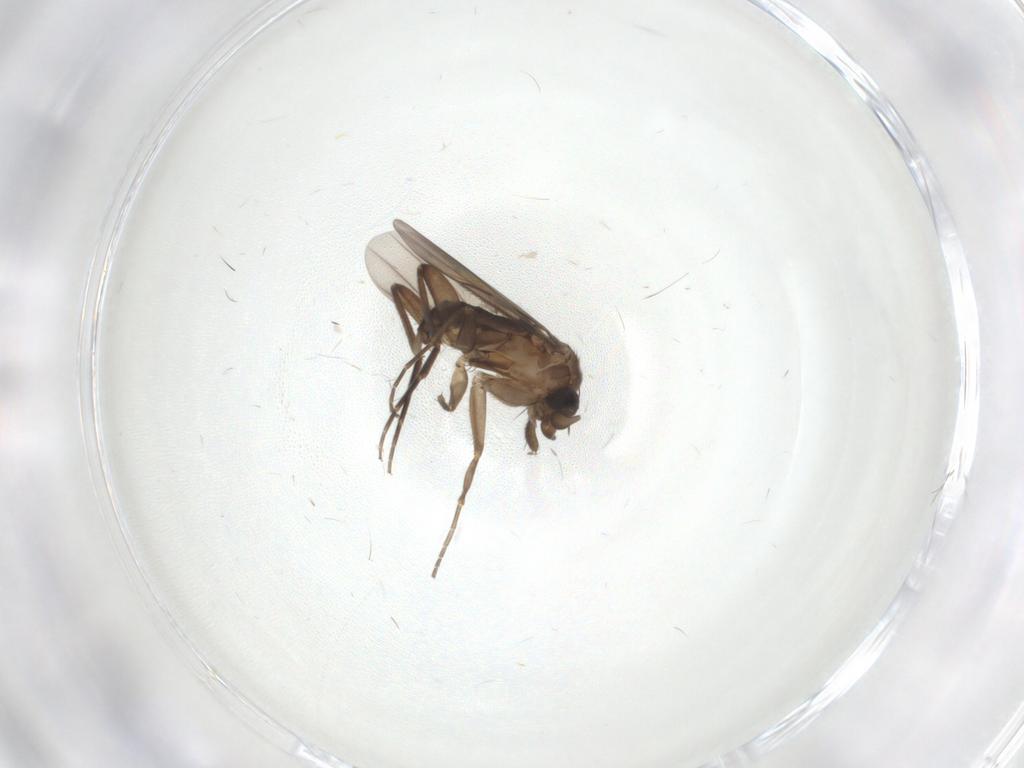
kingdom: Animalia
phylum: Arthropoda
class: Insecta
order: Diptera
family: Phoridae
